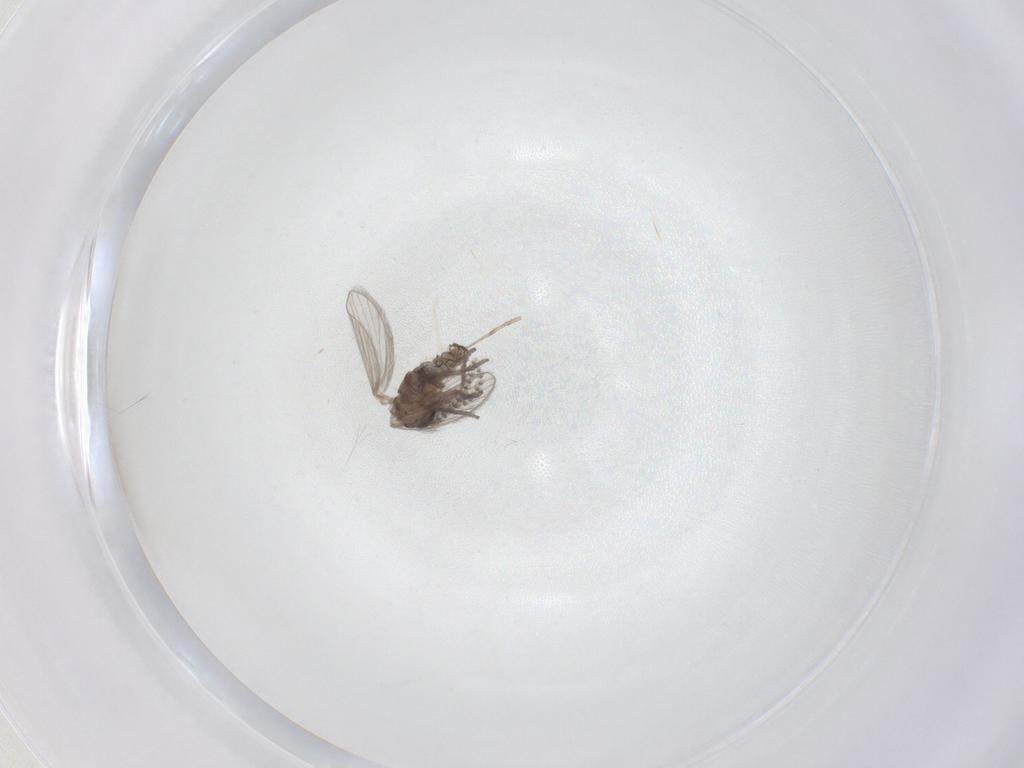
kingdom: Animalia
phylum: Arthropoda
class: Insecta
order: Diptera
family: Psychodidae
